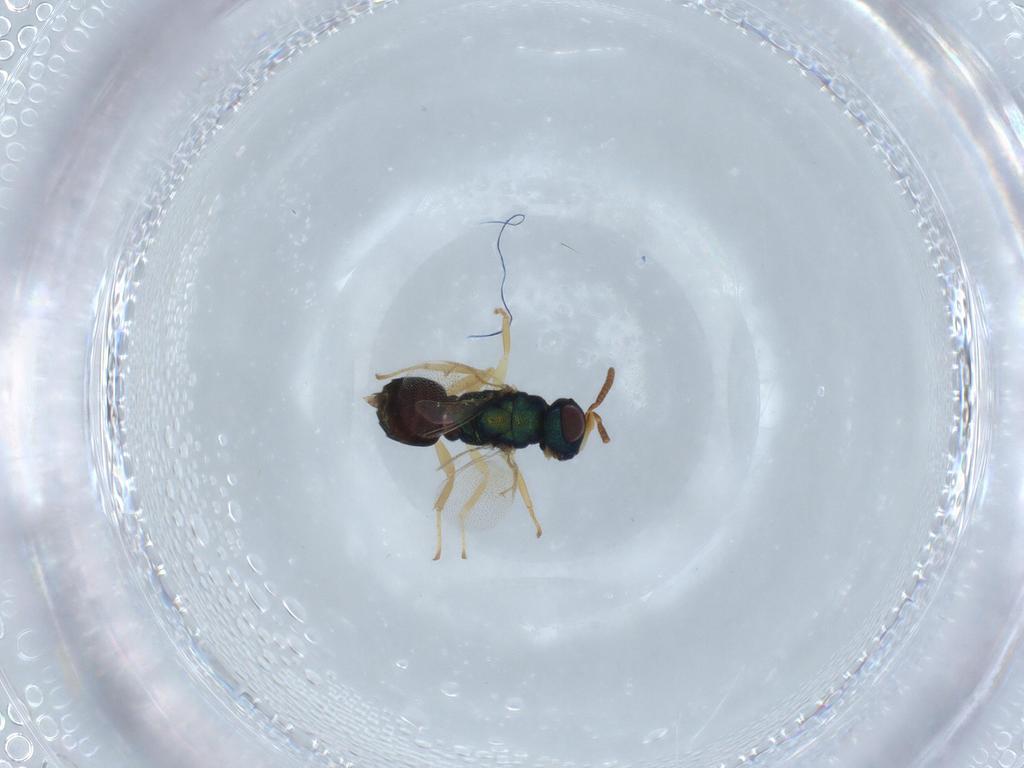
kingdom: Animalia
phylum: Arthropoda
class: Insecta
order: Hymenoptera
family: Pteromalidae
